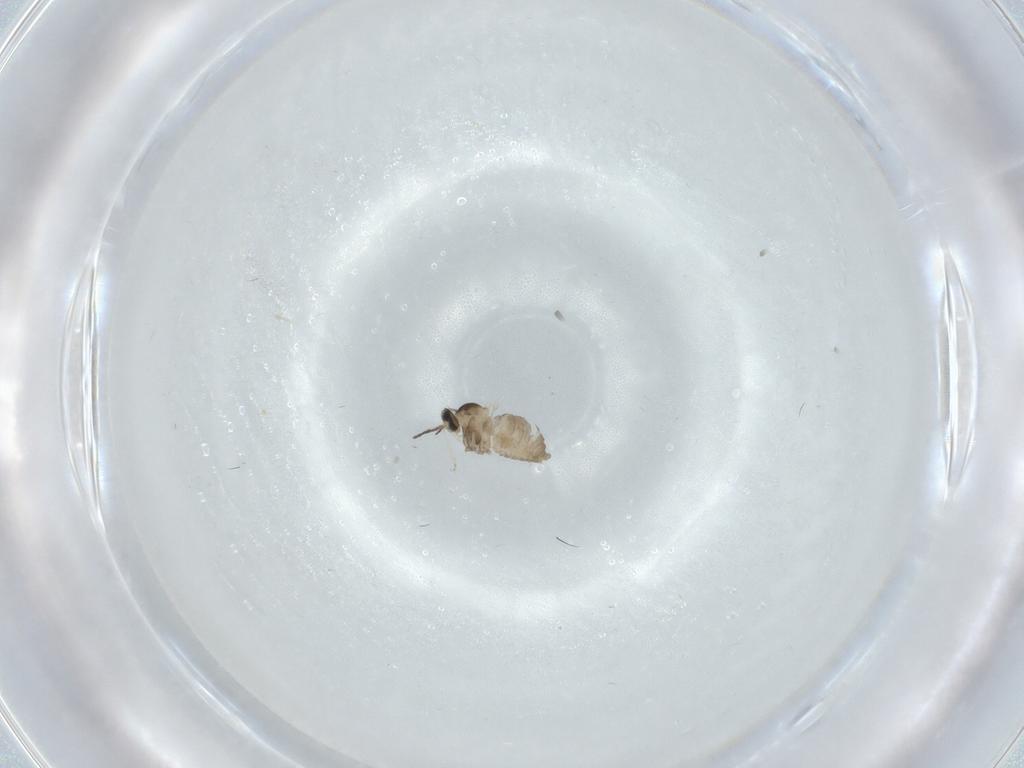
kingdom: Animalia
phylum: Arthropoda
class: Insecta
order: Diptera
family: Cecidomyiidae
